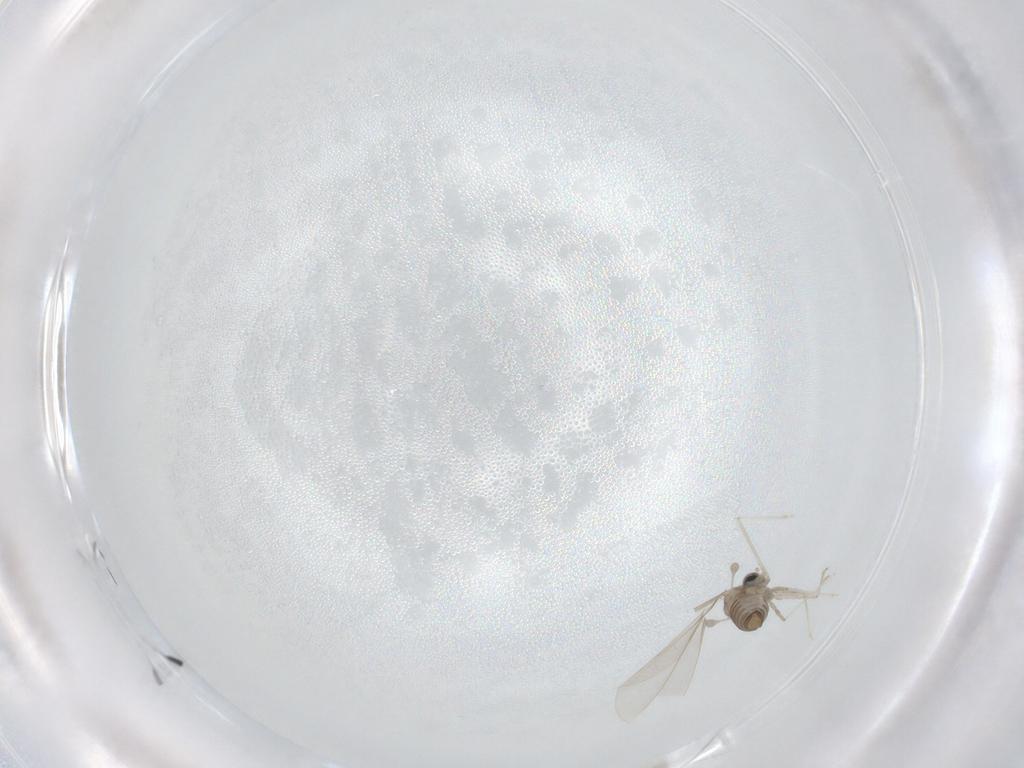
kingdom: Animalia
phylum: Arthropoda
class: Insecta
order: Diptera
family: Cecidomyiidae
